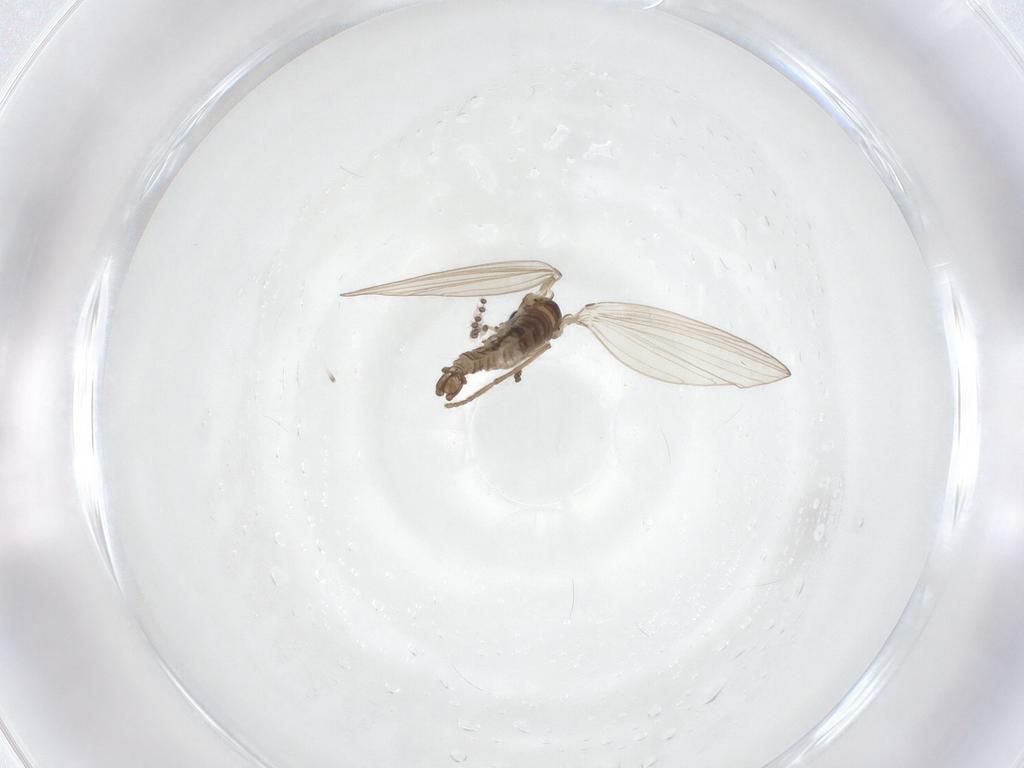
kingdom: Animalia
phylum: Arthropoda
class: Insecta
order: Diptera
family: Psychodidae
